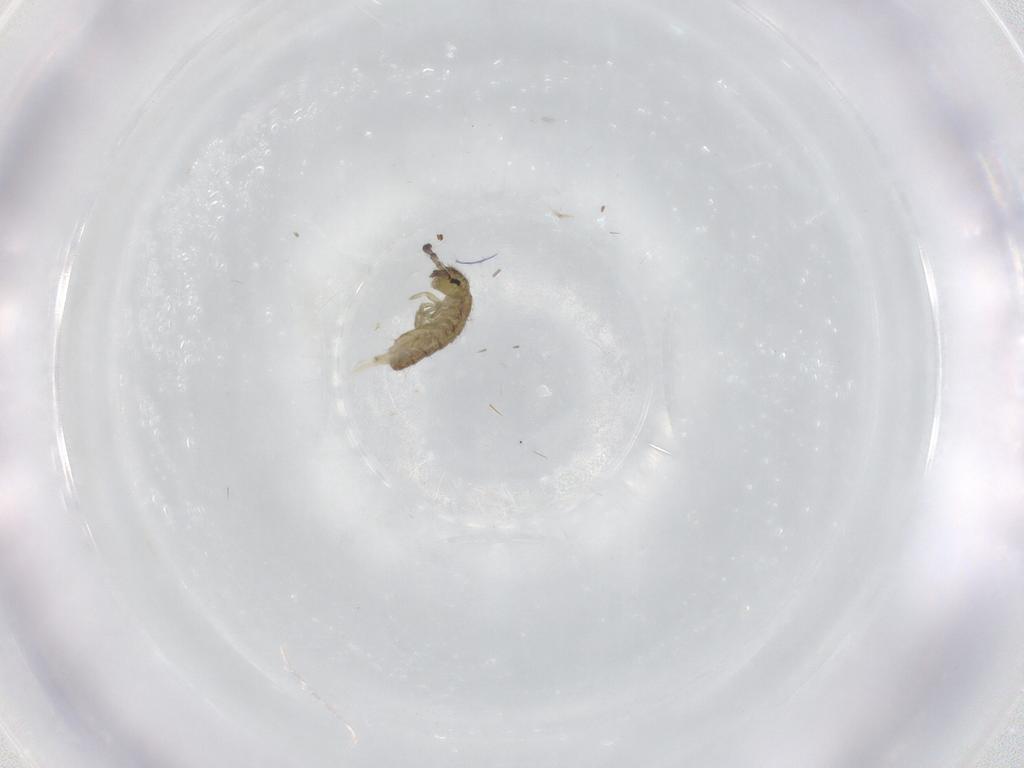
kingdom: Animalia
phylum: Arthropoda
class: Collembola
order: Entomobryomorpha
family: Isotomidae
